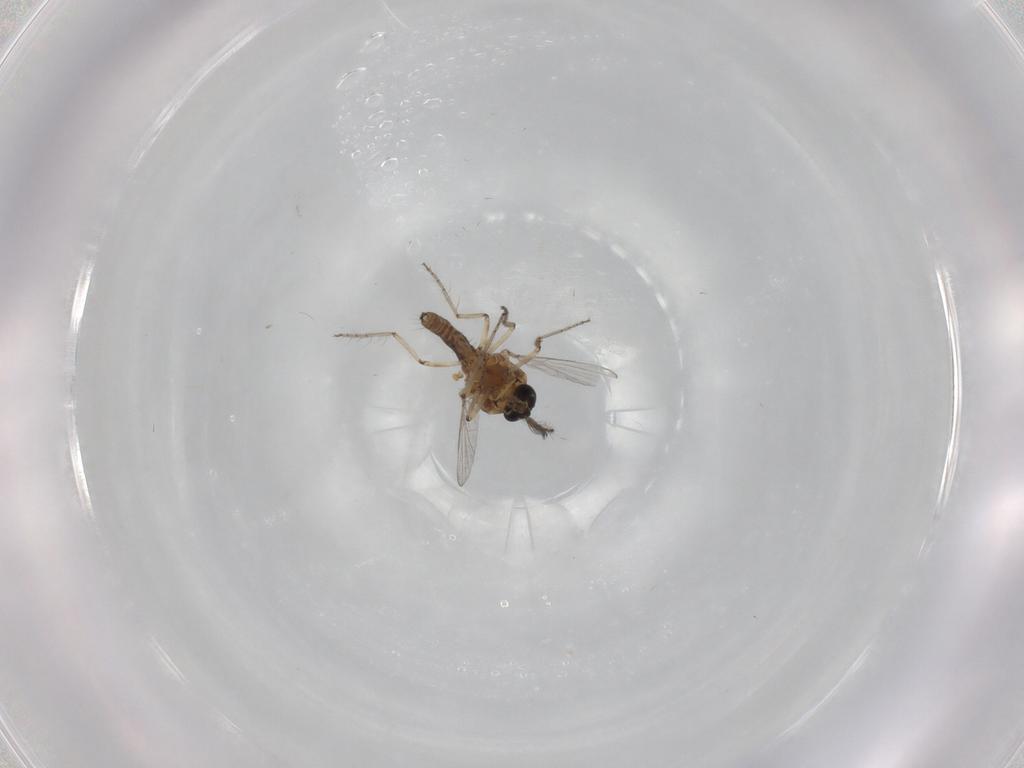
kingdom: Animalia
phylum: Arthropoda
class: Insecta
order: Diptera
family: Ceratopogonidae
